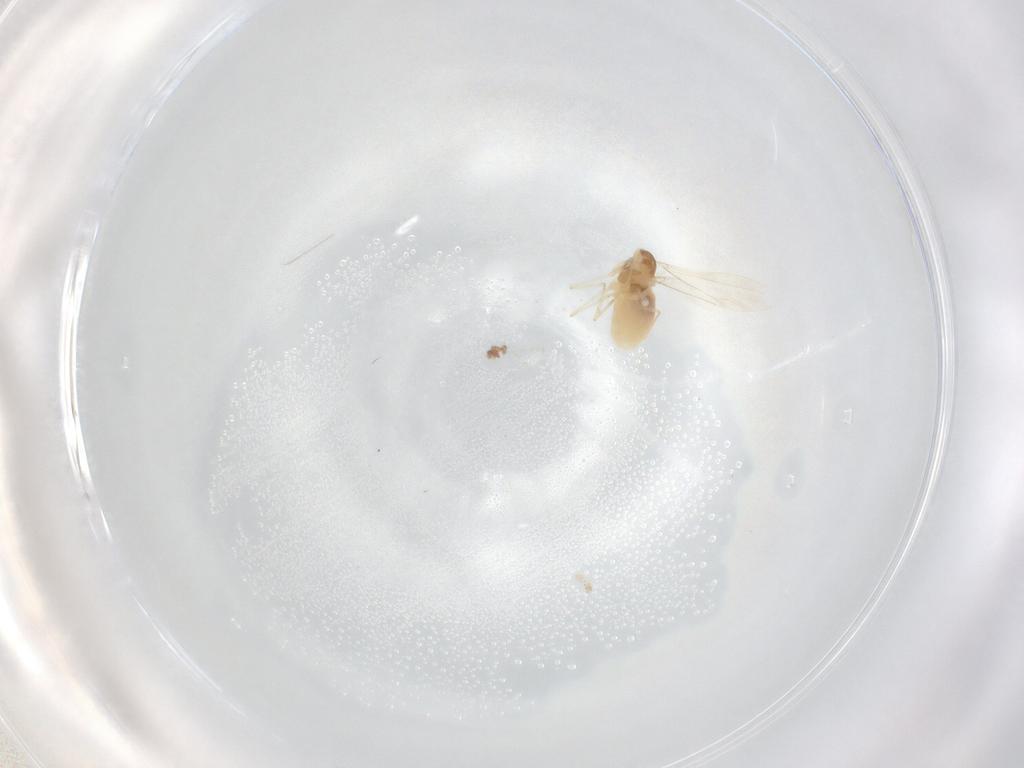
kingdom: Animalia
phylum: Arthropoda
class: Insecta
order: Diptera
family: Cecidomyiidae
